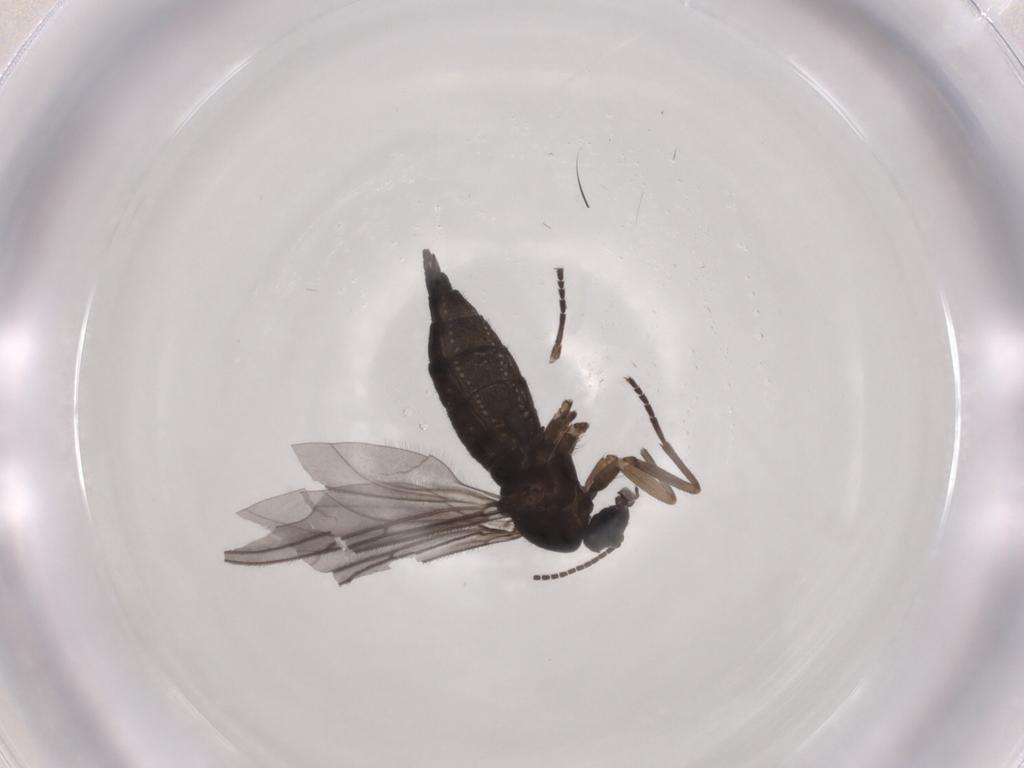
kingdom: Animalia
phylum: Arthropoda
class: Insecta
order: Diptera
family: Sciaridae
